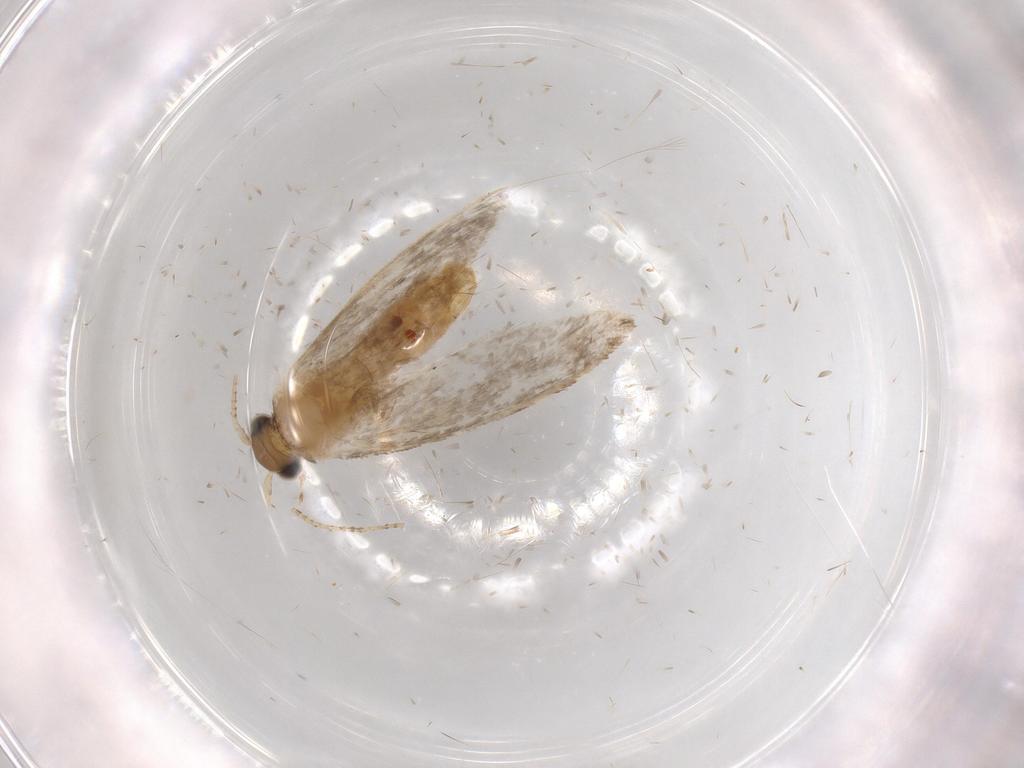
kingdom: Animalia
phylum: Arthropoda
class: Insecta
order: Lepidoptera
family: Tineidae
